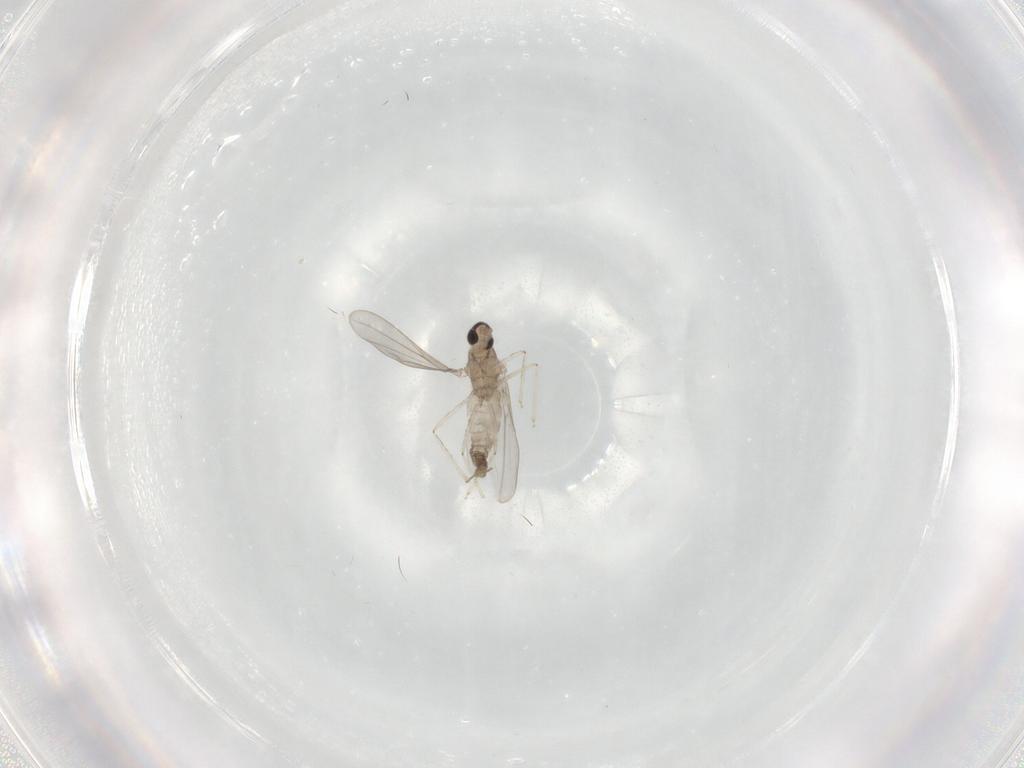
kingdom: Animalia
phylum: Arthropoda
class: Insecta
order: Diptera
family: Cecidomyiidae
